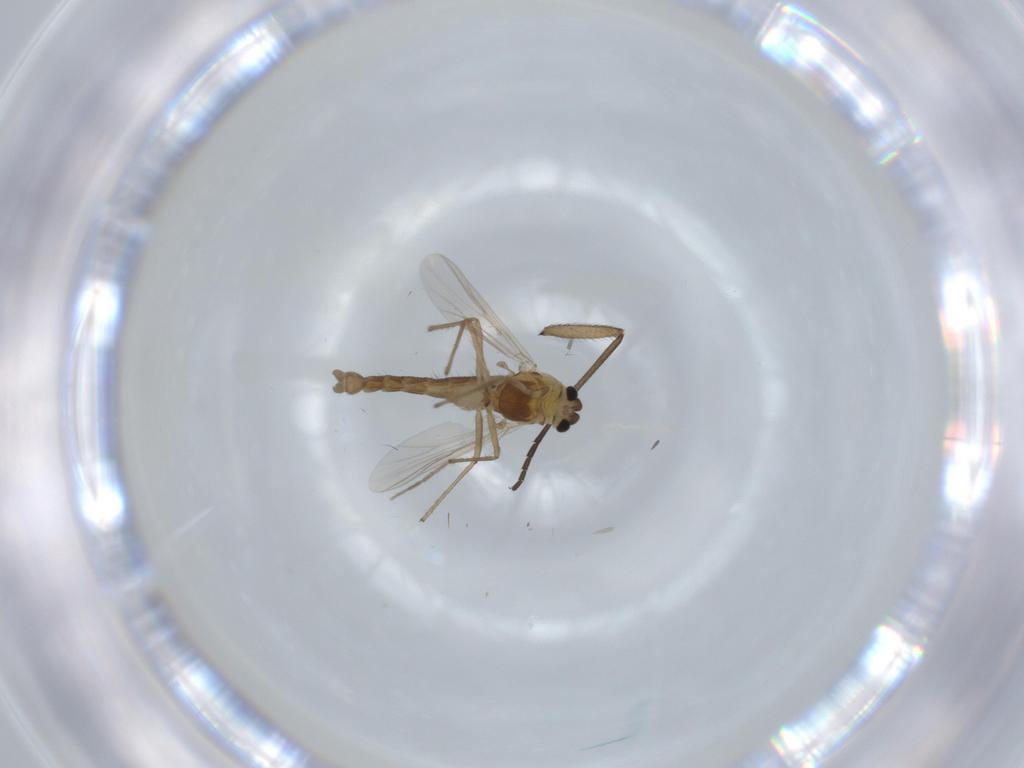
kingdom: Animalia
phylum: Arthropoda
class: Insecta
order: Diptera
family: Chironomidae
